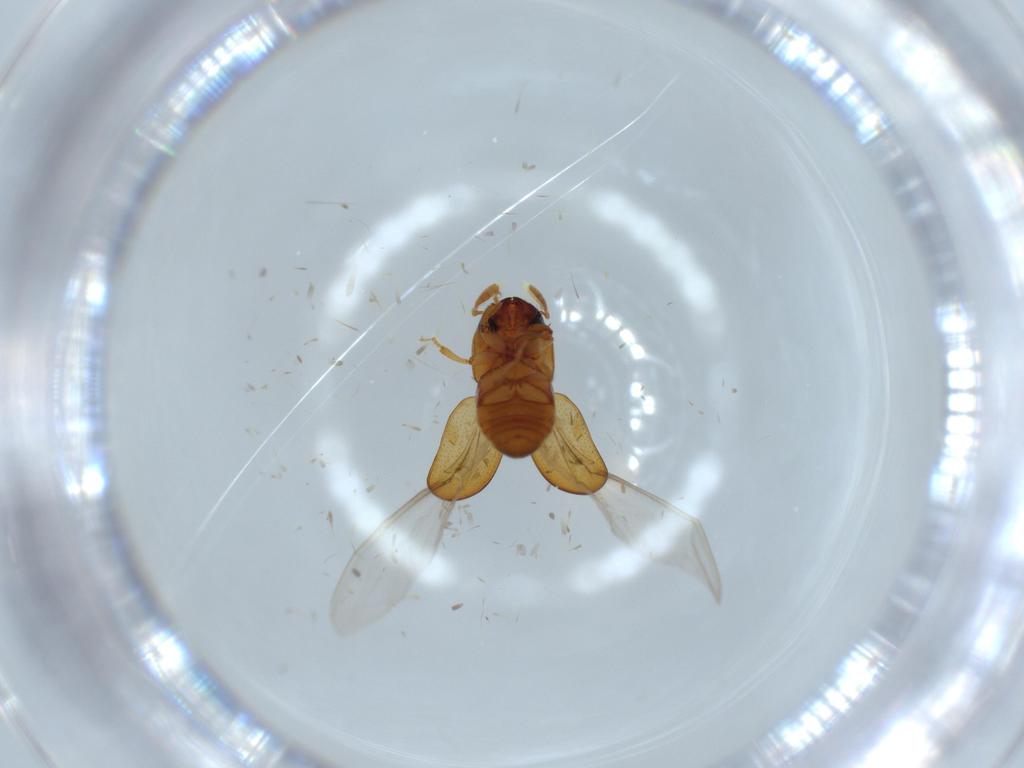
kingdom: Animalia
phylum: Arthropoda
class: Insecta
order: Coleoptera
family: Curculionidae
